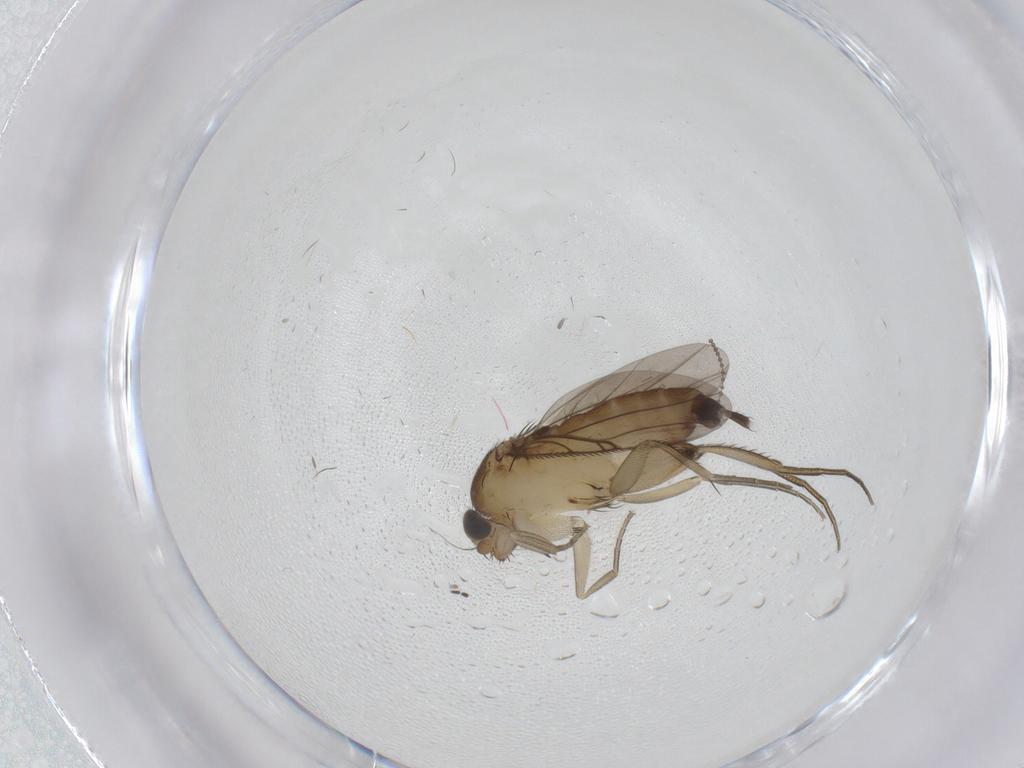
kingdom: Animalia
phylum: Arthropoda
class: Insecta
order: Diptera
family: Phoridae
